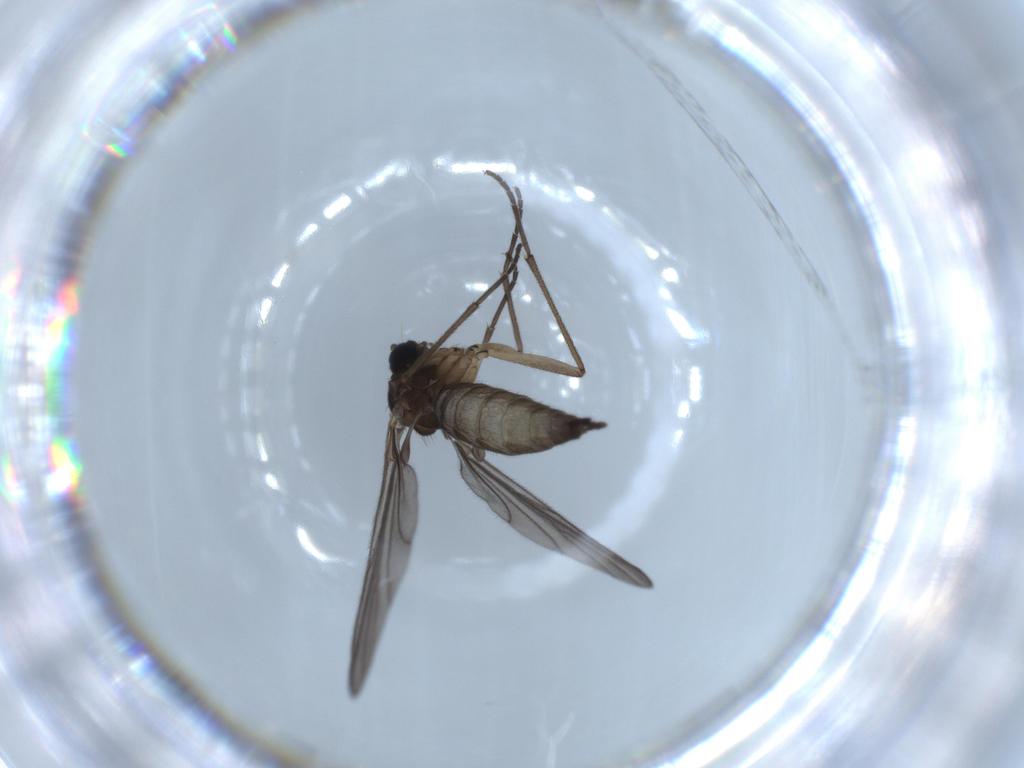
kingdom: Animalia
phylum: Arthropoda
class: Insecta
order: Diptera
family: Sciaridae
